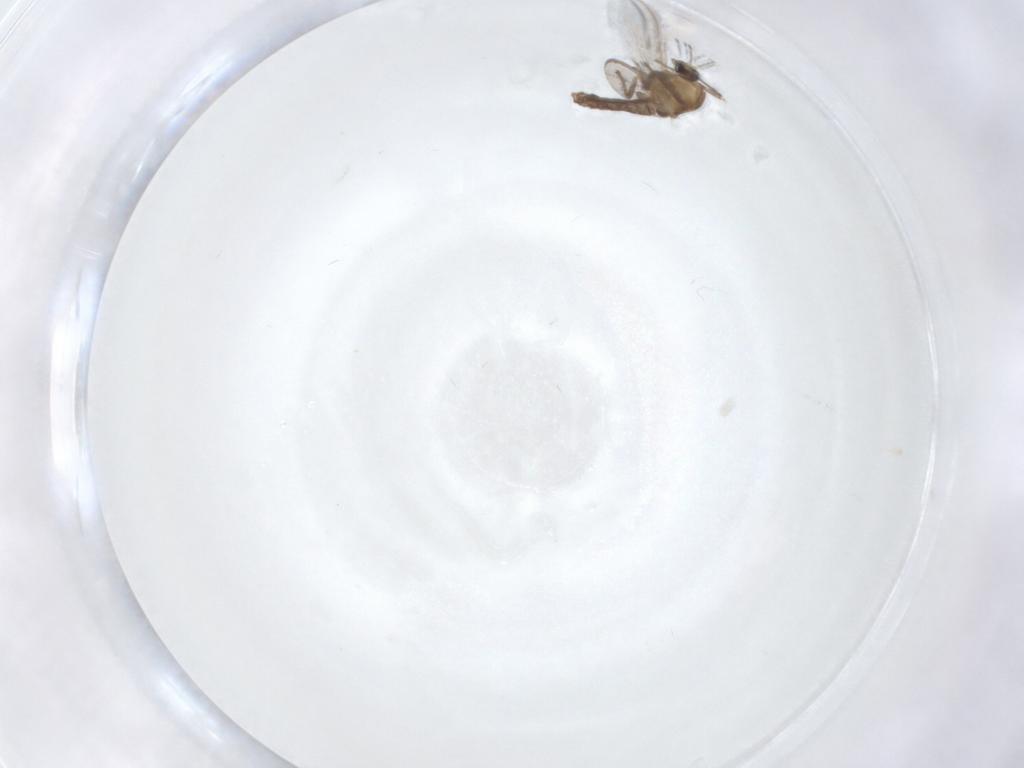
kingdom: Animalia
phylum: Arthropoda
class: Insecta
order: Diptera
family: Chironomidae
